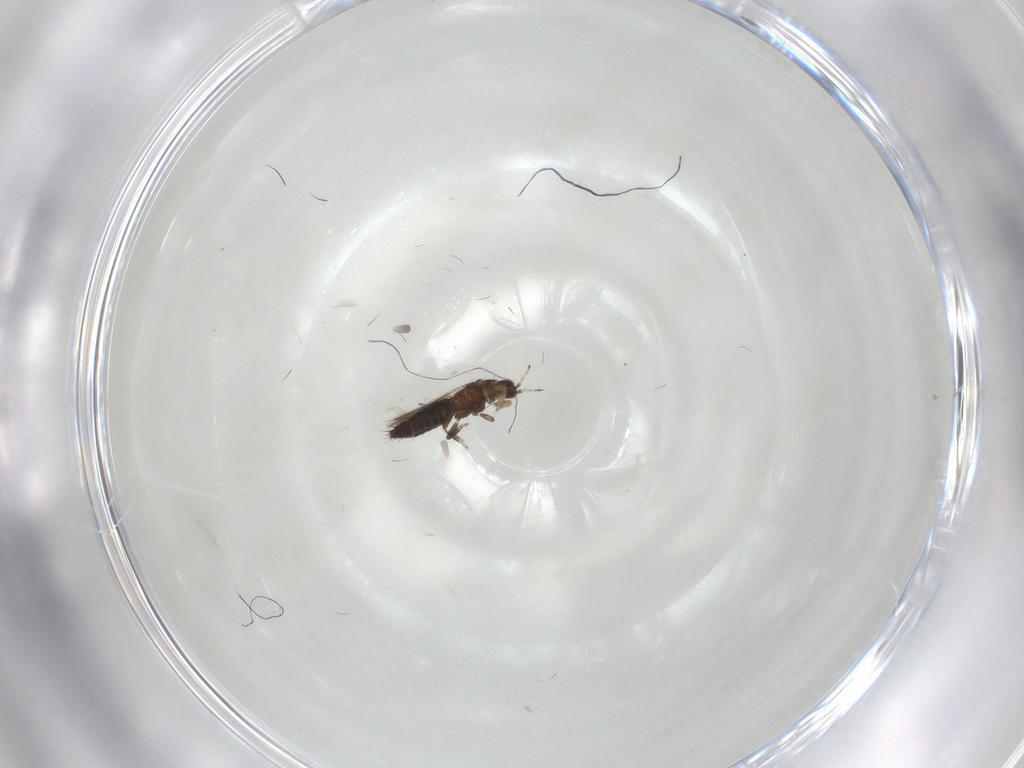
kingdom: Animalia
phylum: Arthropoda
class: Insecta
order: Thysanoptera
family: Thripidae
